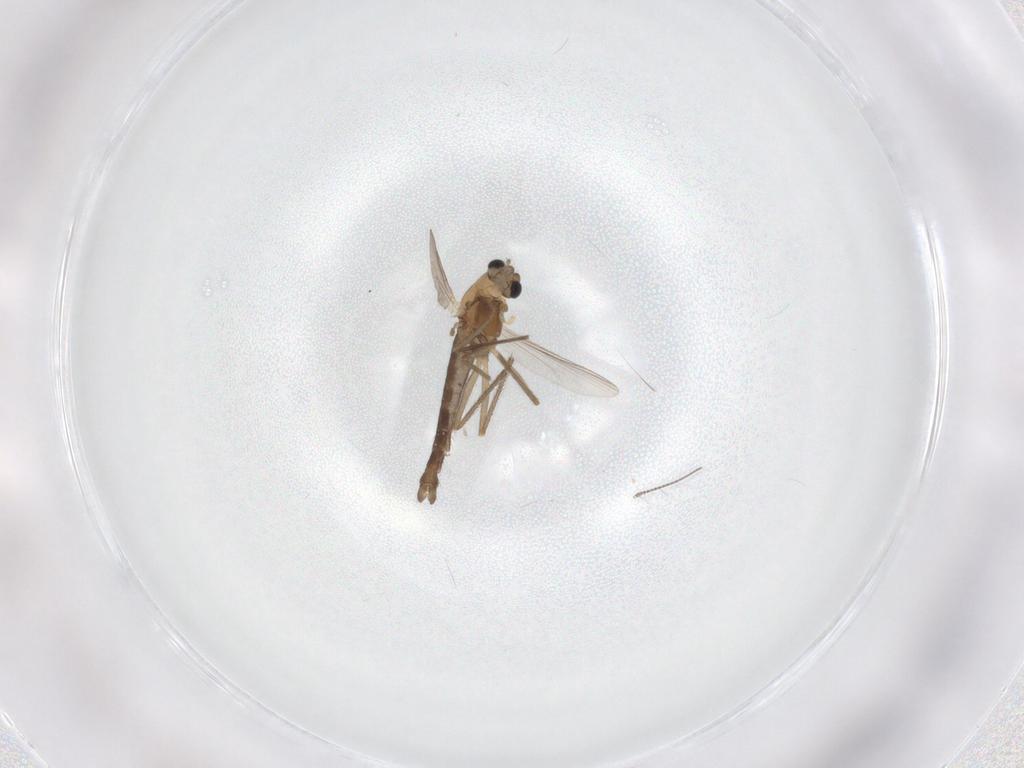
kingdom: Animalia
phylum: Arthropoda
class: Insecta
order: Diptera
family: Chironomidae
